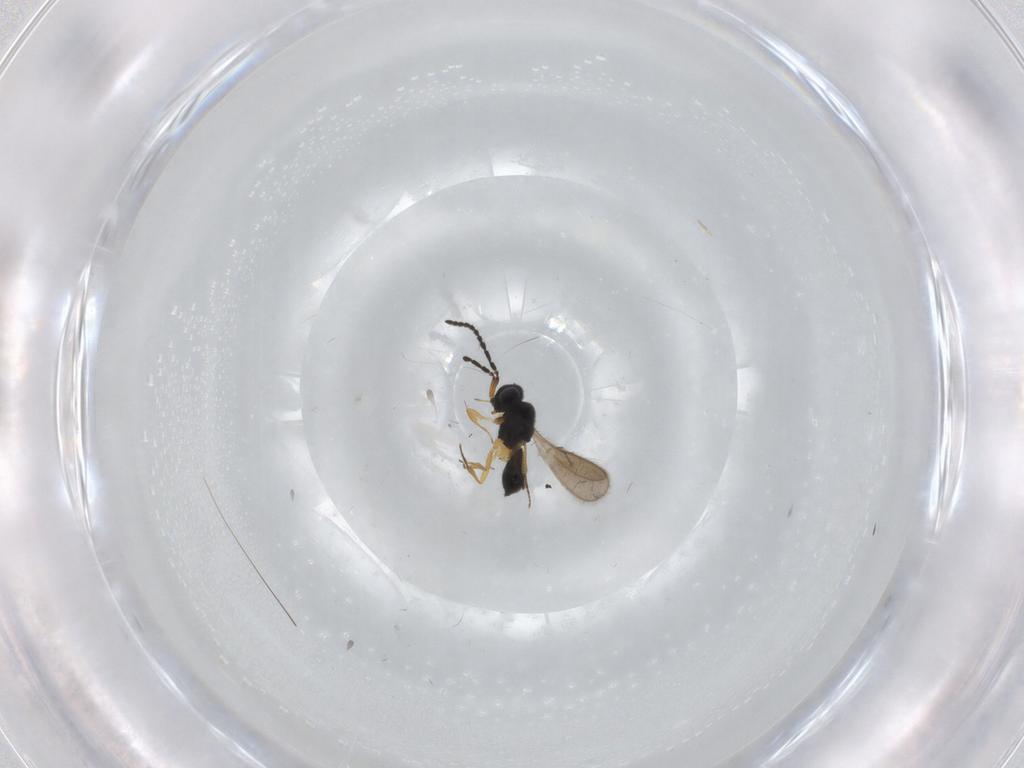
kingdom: Animalia
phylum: Arthropoda
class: Insecta
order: Hymenoptera
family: Scelionidae
